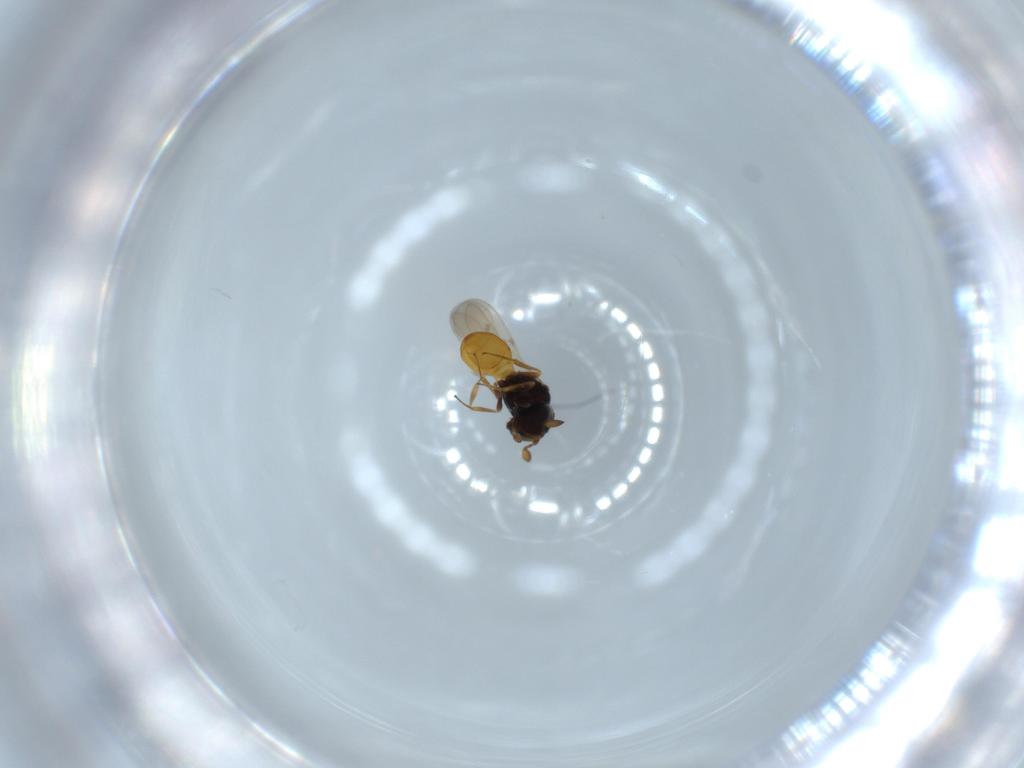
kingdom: Animalia
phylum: Arthropoda
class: Insecta
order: Hymenoptera
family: Scelionidae
